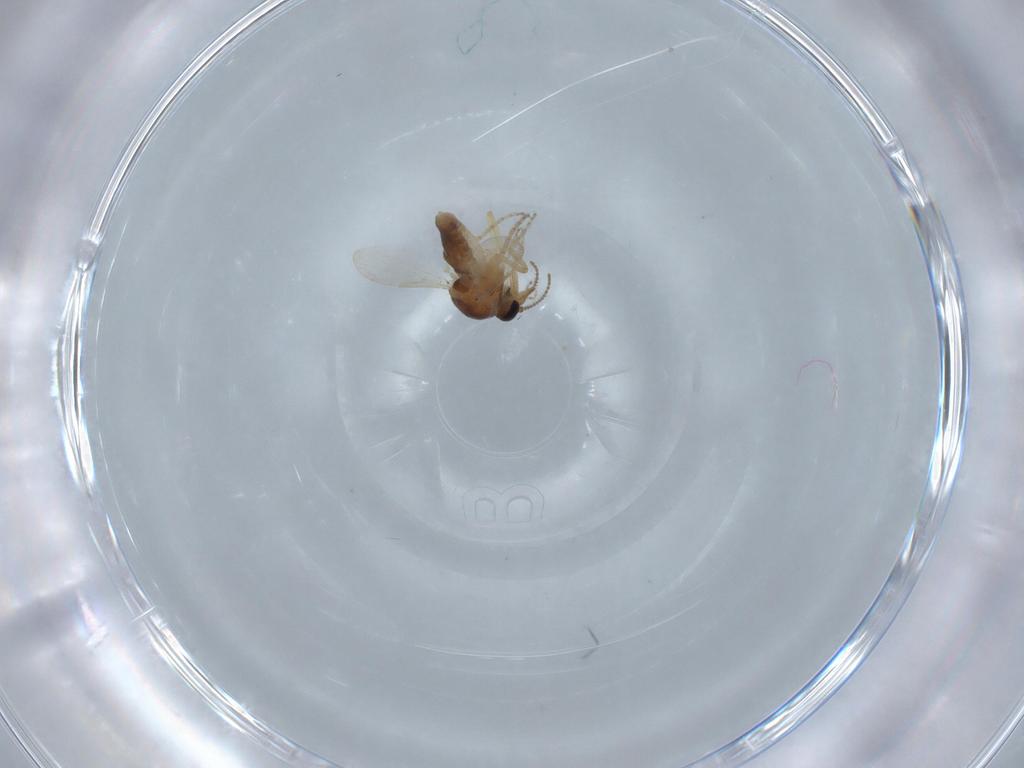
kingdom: Animalia
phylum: Arthropoda
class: Insecta
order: Diptera
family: Ceratopogonidae
